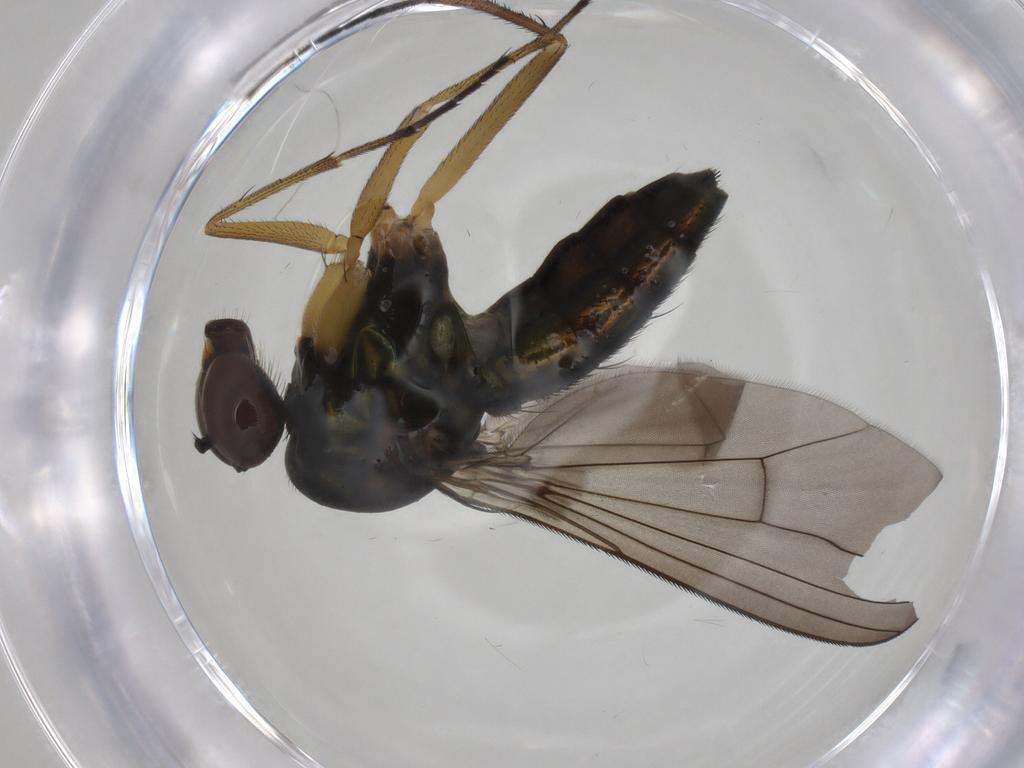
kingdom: Animalia
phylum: Arthropoda
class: Insecta
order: Diptera
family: Dolichopodidae
